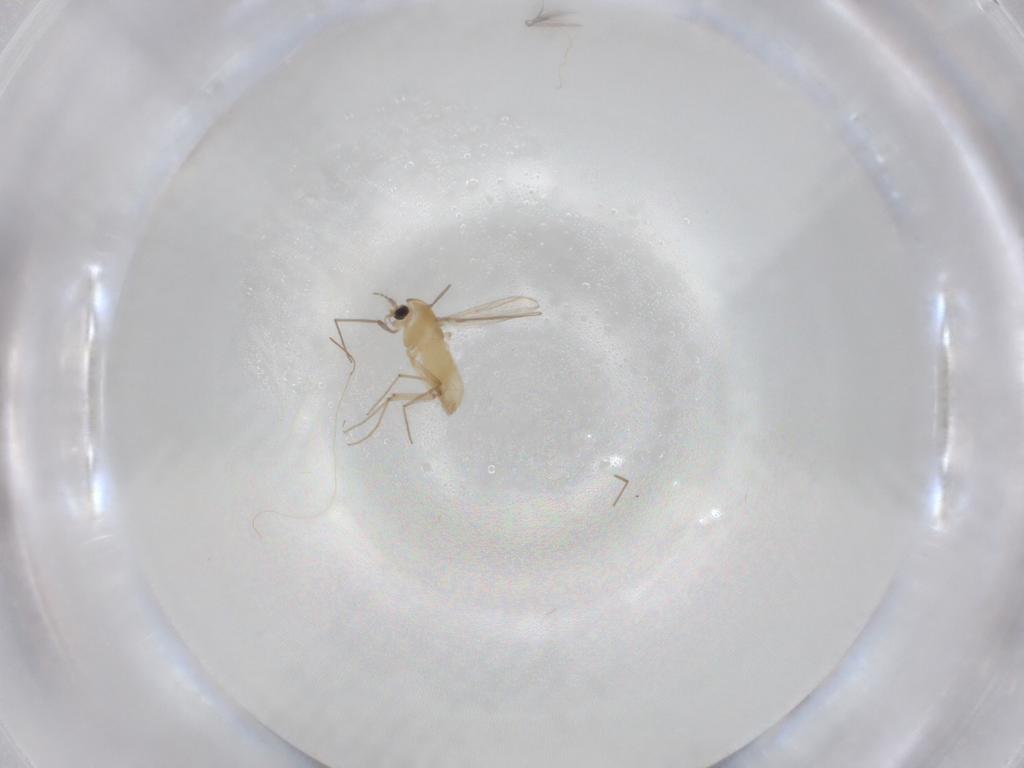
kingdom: Animalia
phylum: Arthropoda
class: Insecta
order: Diptera
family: Chironomidae
